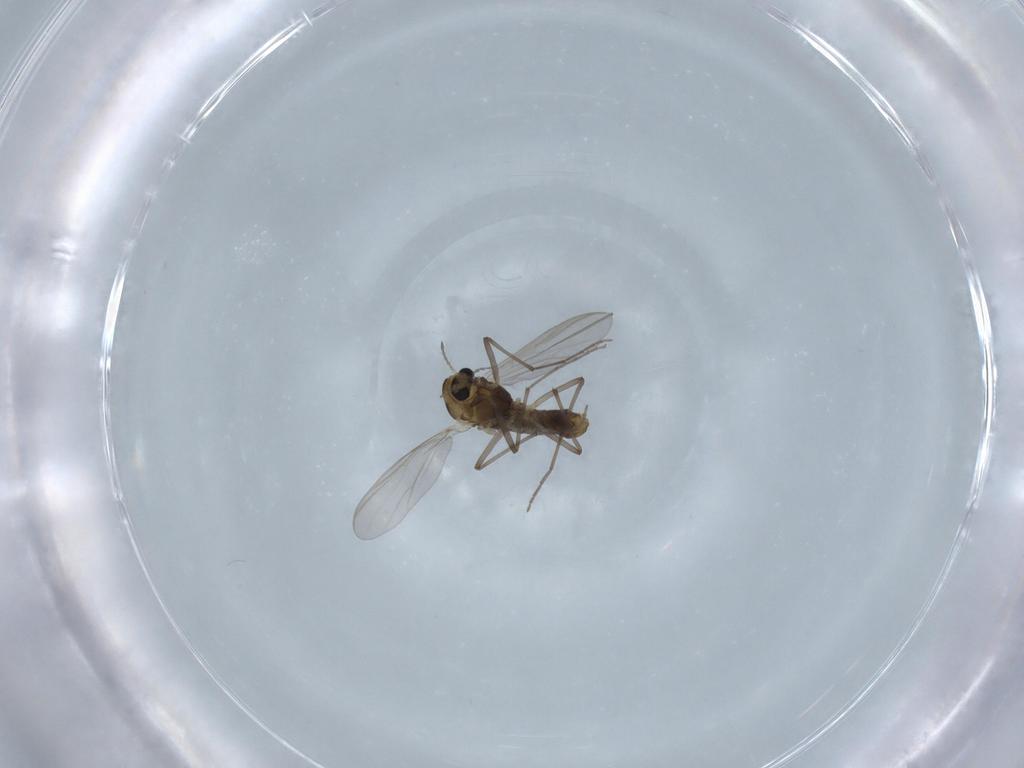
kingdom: Animalia
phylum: Arthropoda
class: Insecta
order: Diptera
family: Chironomidae
